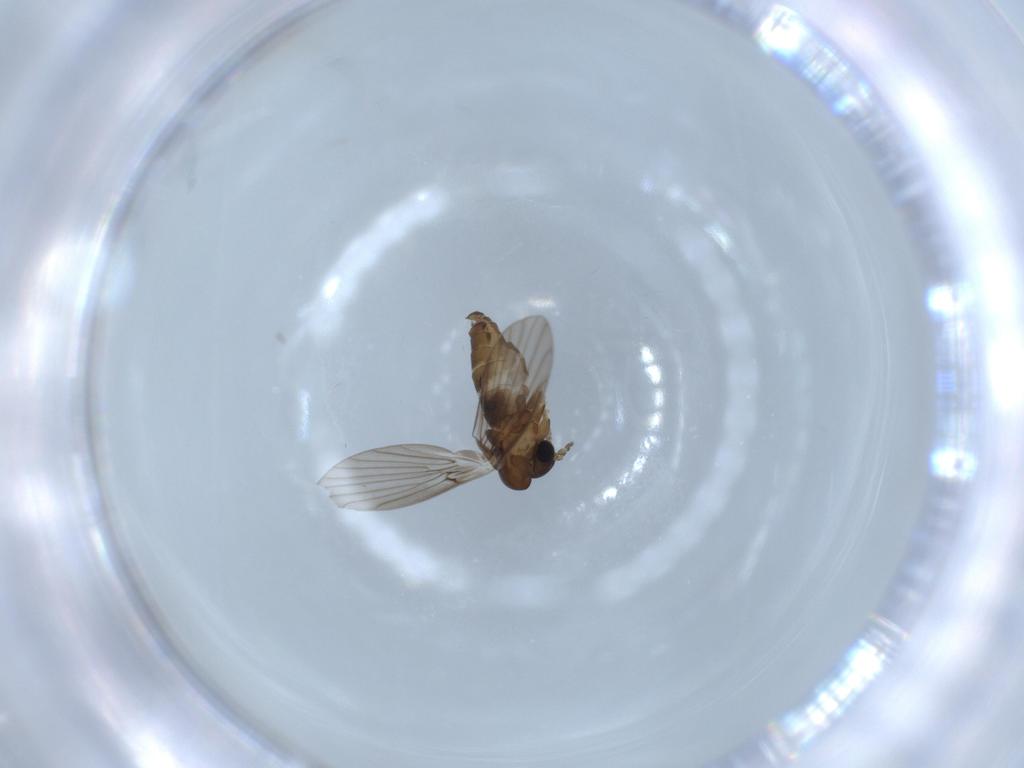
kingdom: Animalia
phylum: Arthropoda
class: Insecta
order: Diptera
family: Psychodidae
